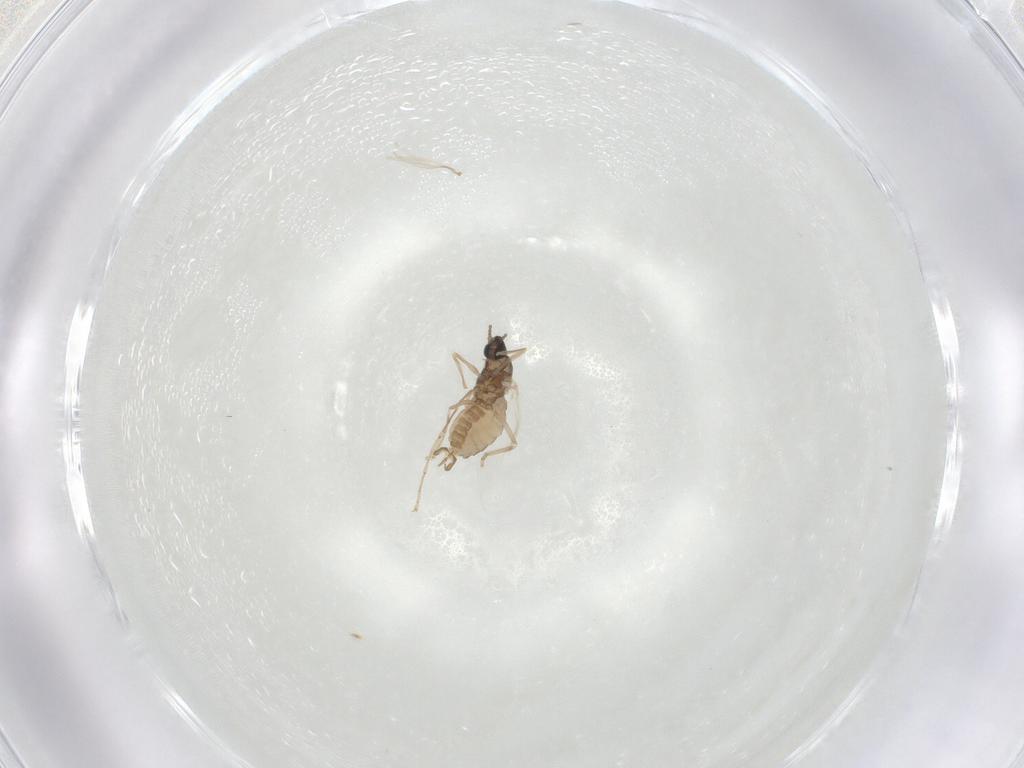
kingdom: Animalia
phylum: Arthropoda
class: Insecta
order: Diptera
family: Cecidomyiidae
